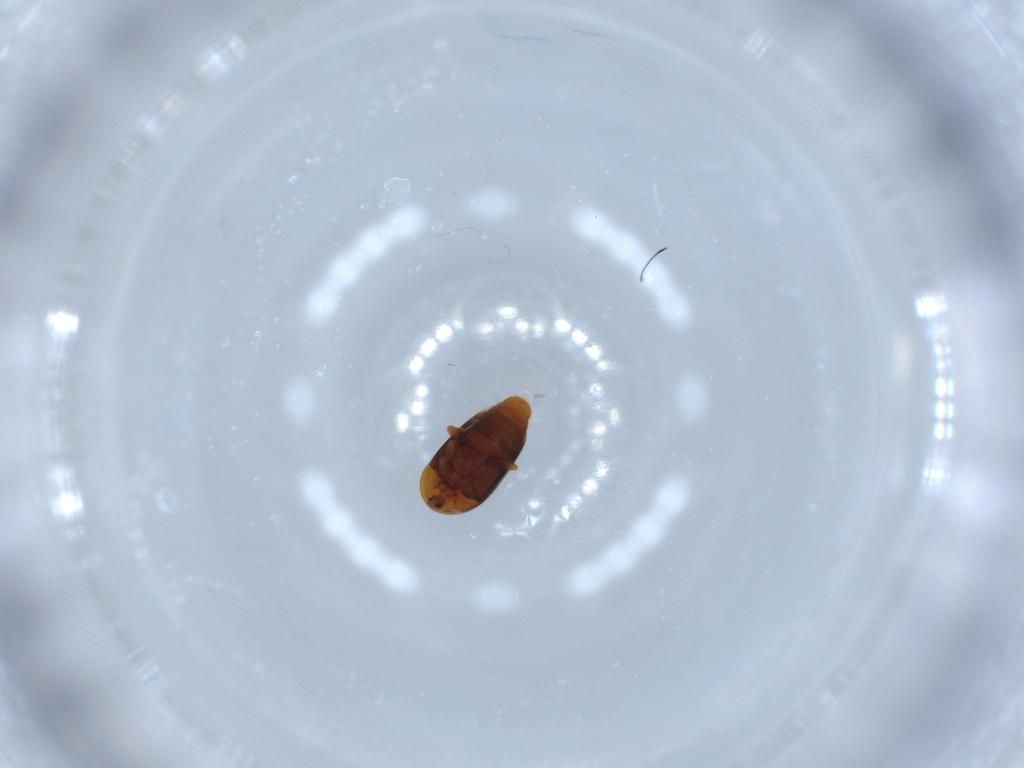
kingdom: Animalia
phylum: Arthropoda
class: Insecta
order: Coleoptera
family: Corylophidae
